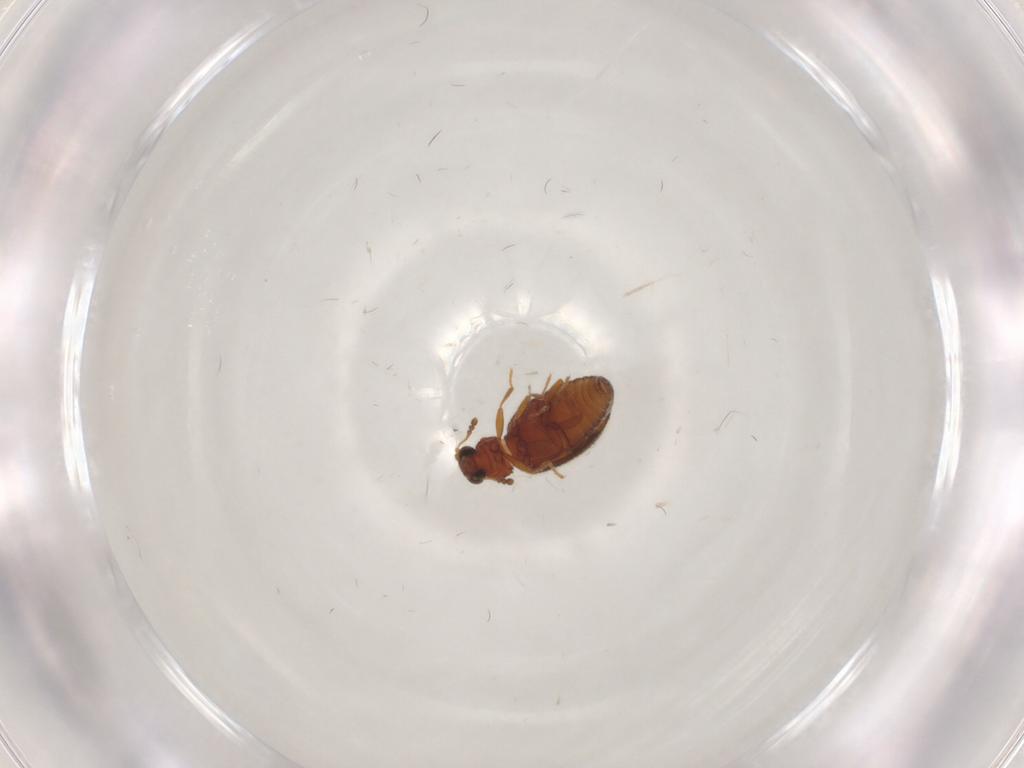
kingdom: Animalia
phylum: Arthropoda
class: Insecta
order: Coleoptera
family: Latridiidae
